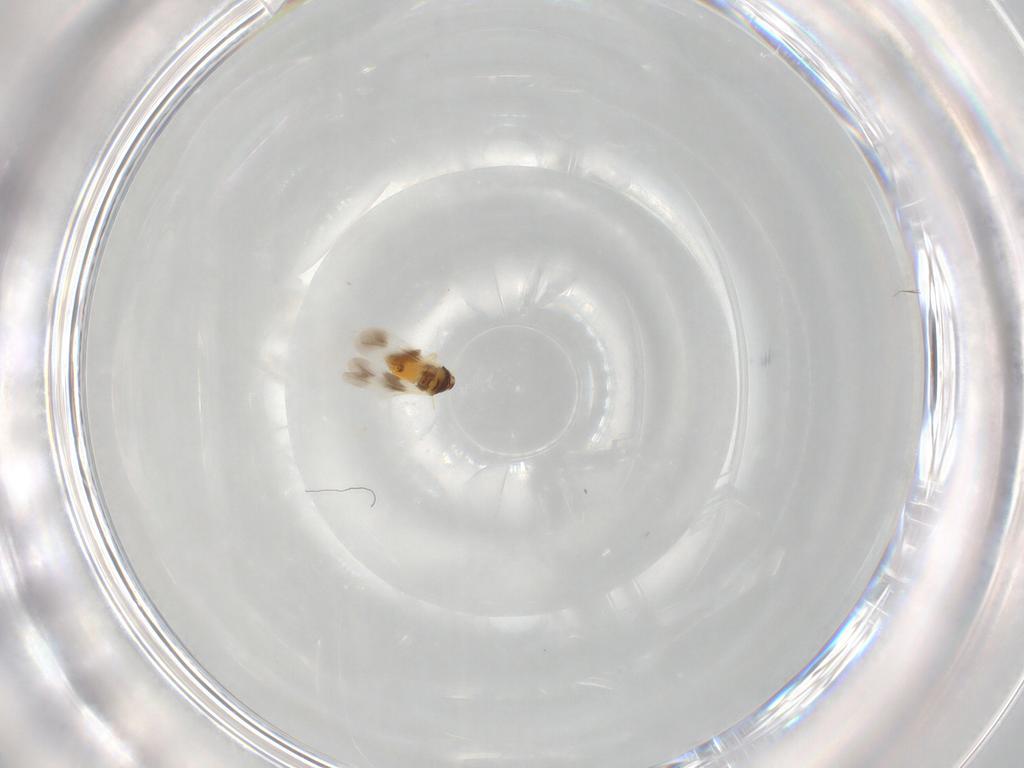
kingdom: Animalia
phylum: Arthropoda
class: Insecta
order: Hemiptera
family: Aleyrodidae
